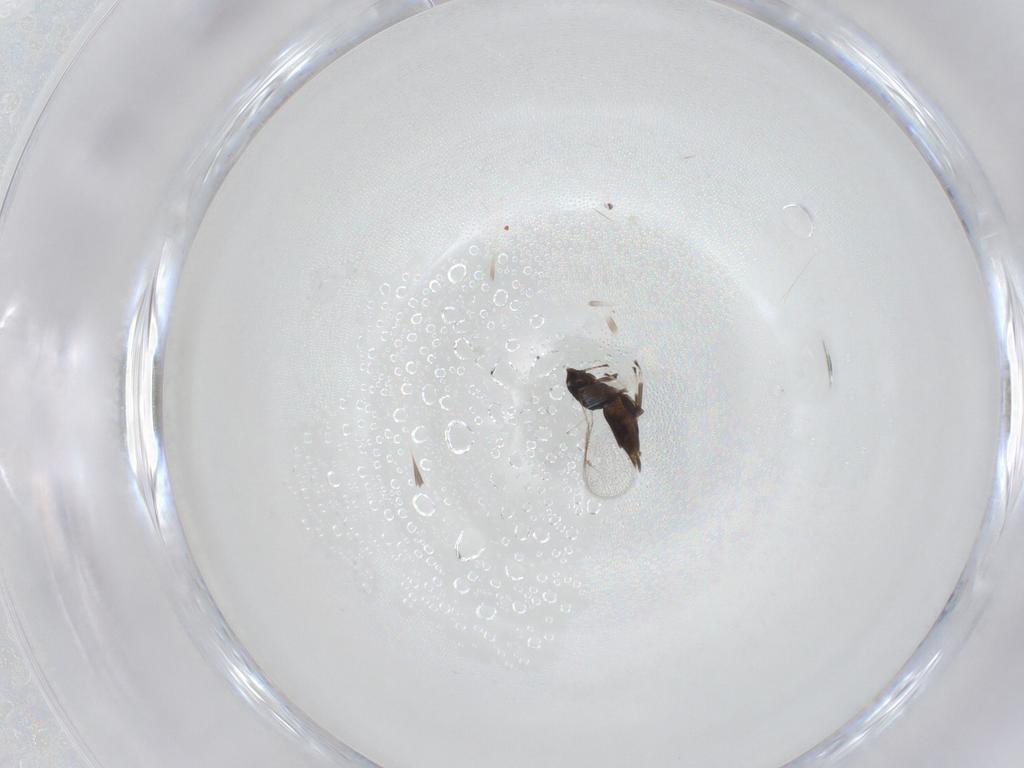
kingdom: Animalia
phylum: Arthropoda
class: Insecta
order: Hymenoptera
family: Eulophidae
